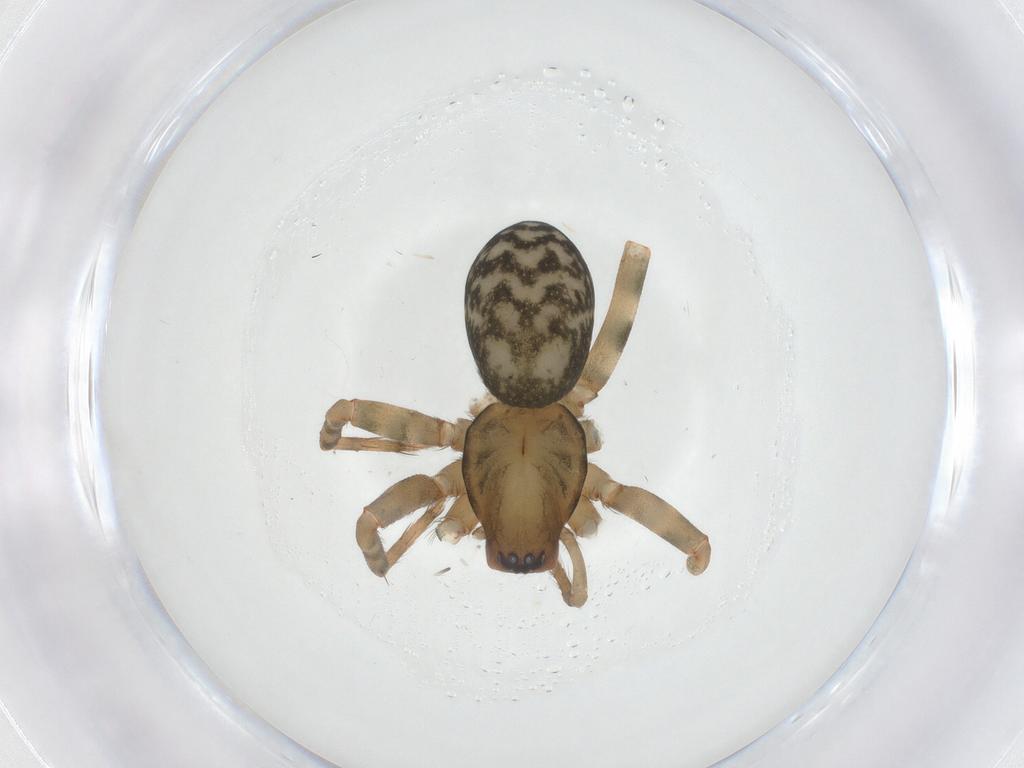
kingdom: Animalia
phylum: Arthropoda
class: Arachnida
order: Araneae
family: Dictynidae
